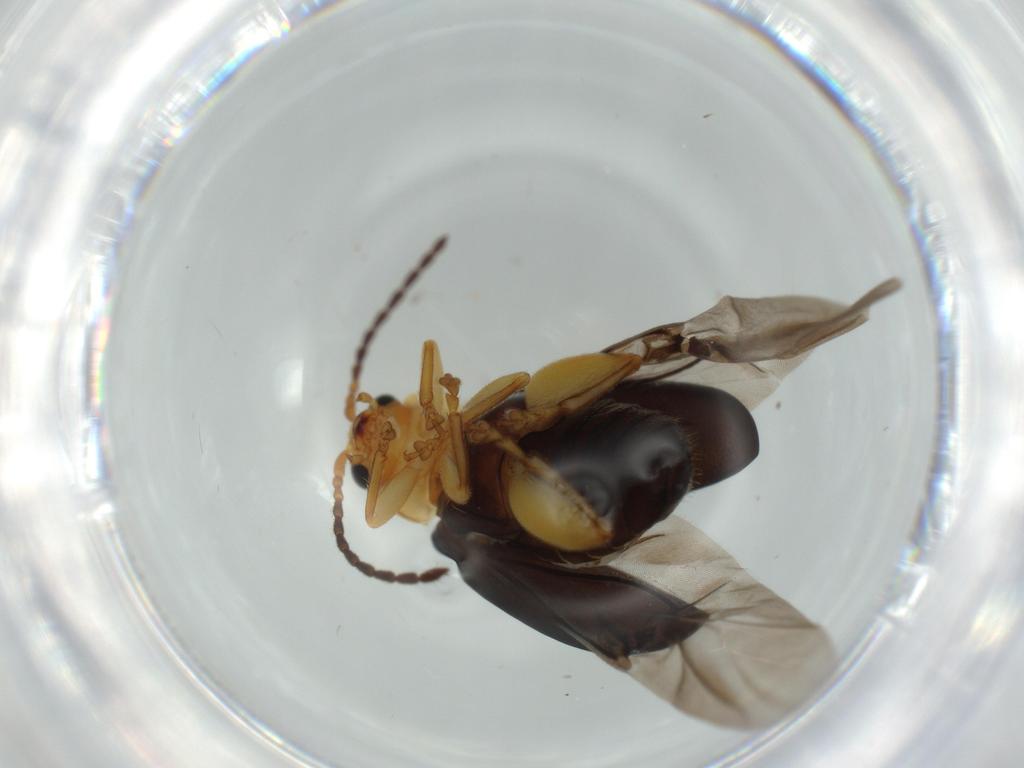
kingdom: Animalia
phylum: Arthropoda
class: Insecta
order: Coleoptera
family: Chrysomelidae
